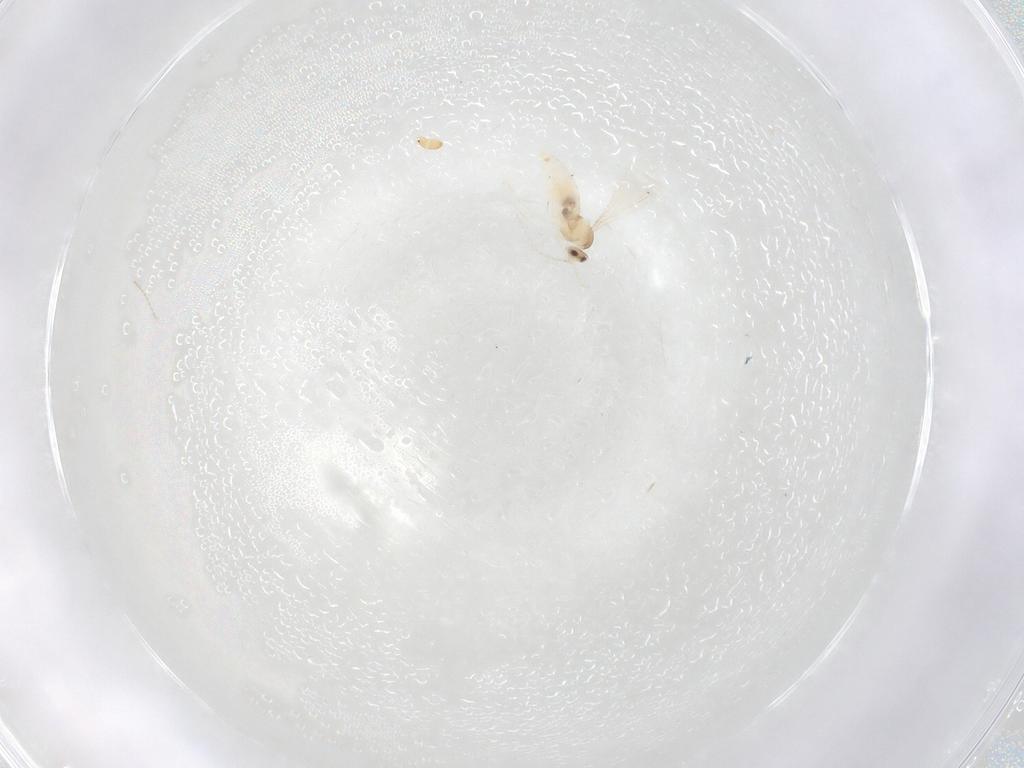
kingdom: Animalia
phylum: Arthropoda
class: Insecta
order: Diptera
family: Cecidomyiidae
